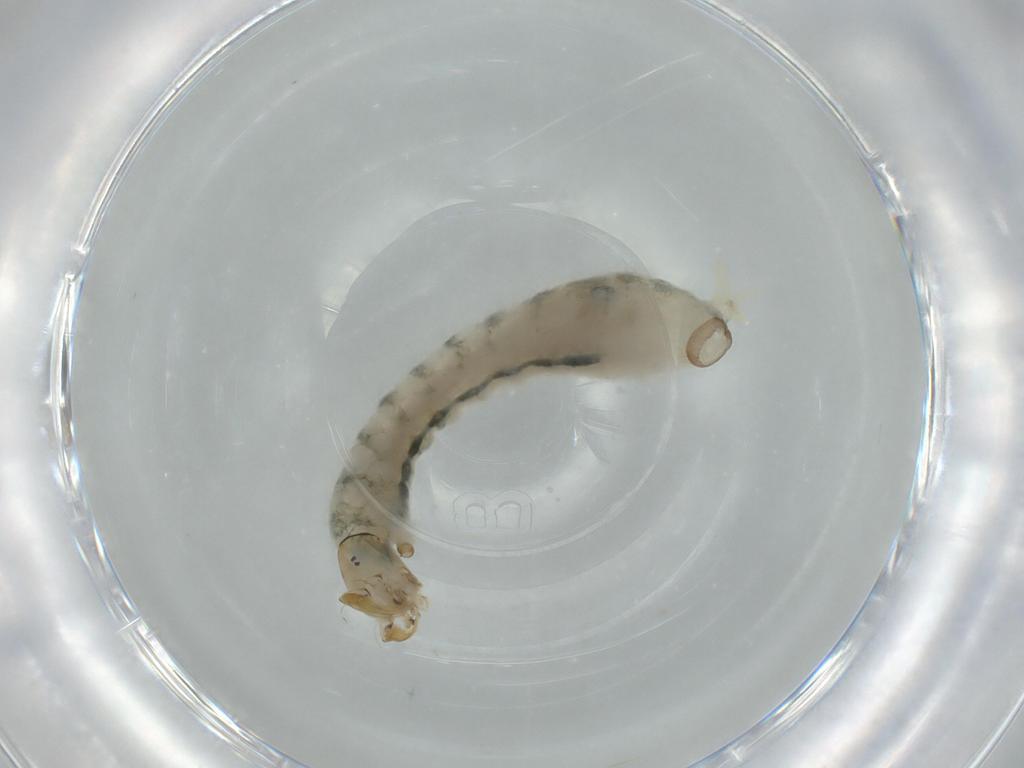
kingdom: Animalia
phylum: Arthropoda
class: Insecta
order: Diptera
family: Simuliidae
